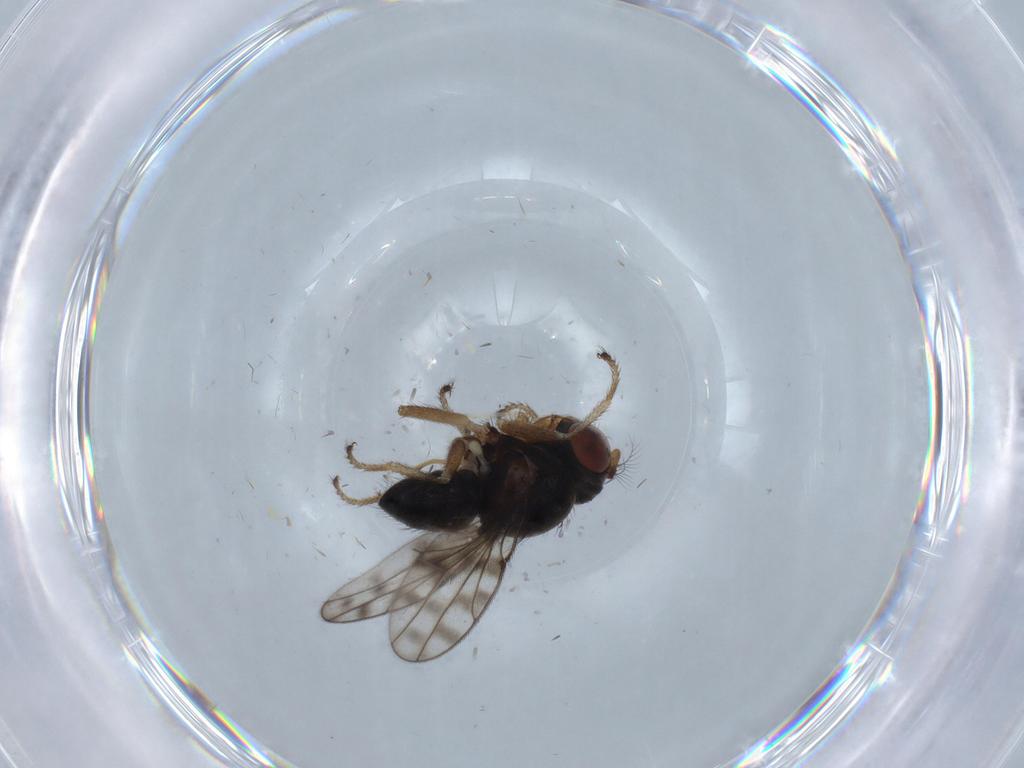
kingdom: Animalia
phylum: Arthropoda
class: Insecta
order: Diptera
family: Ephydridae
